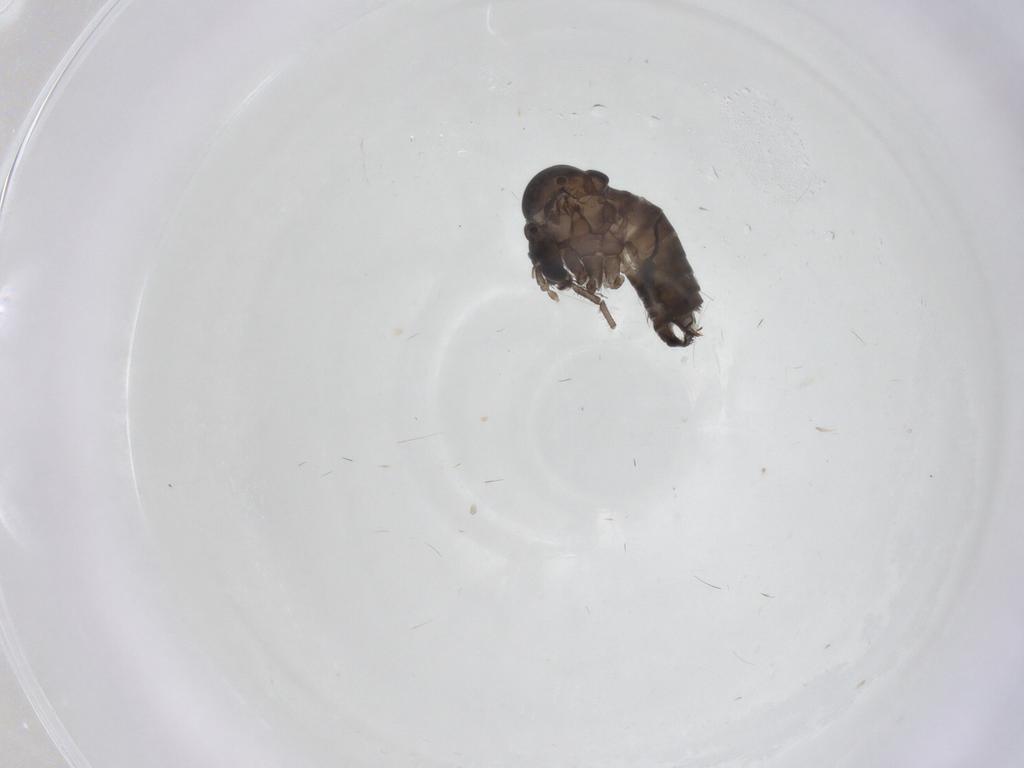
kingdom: Animalia
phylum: Arthropoda
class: Insecta
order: Diptera
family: Psychodidae
